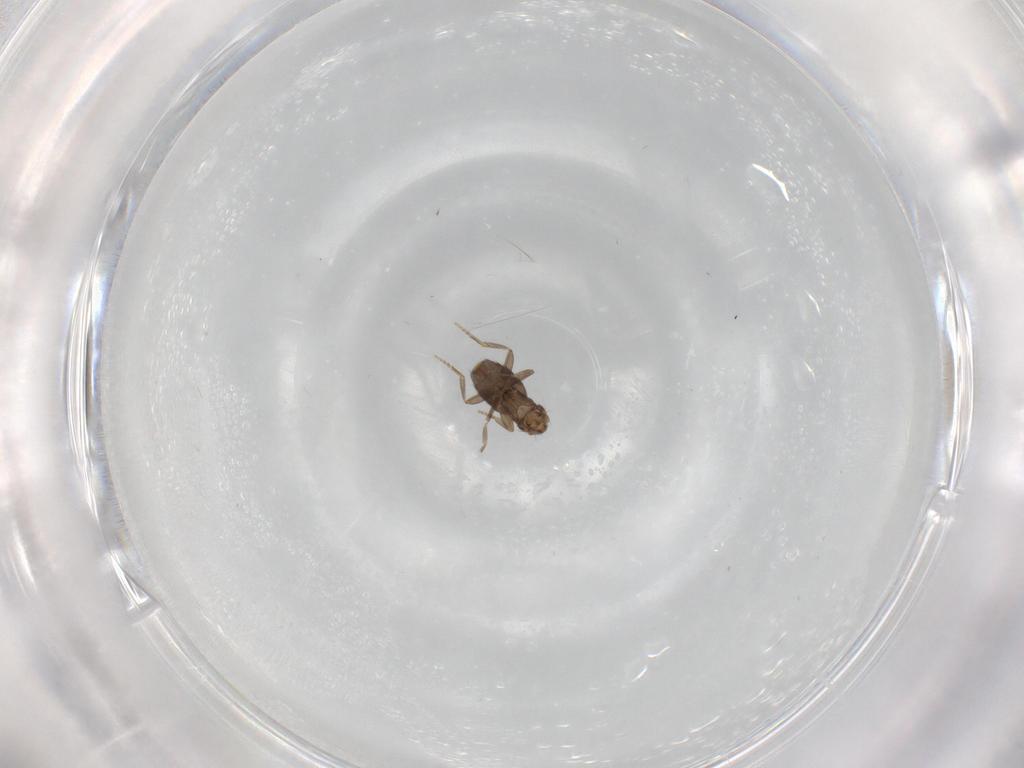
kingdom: Animalia
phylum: Arthropoda
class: Insecta
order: Diptera
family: Phoridae
